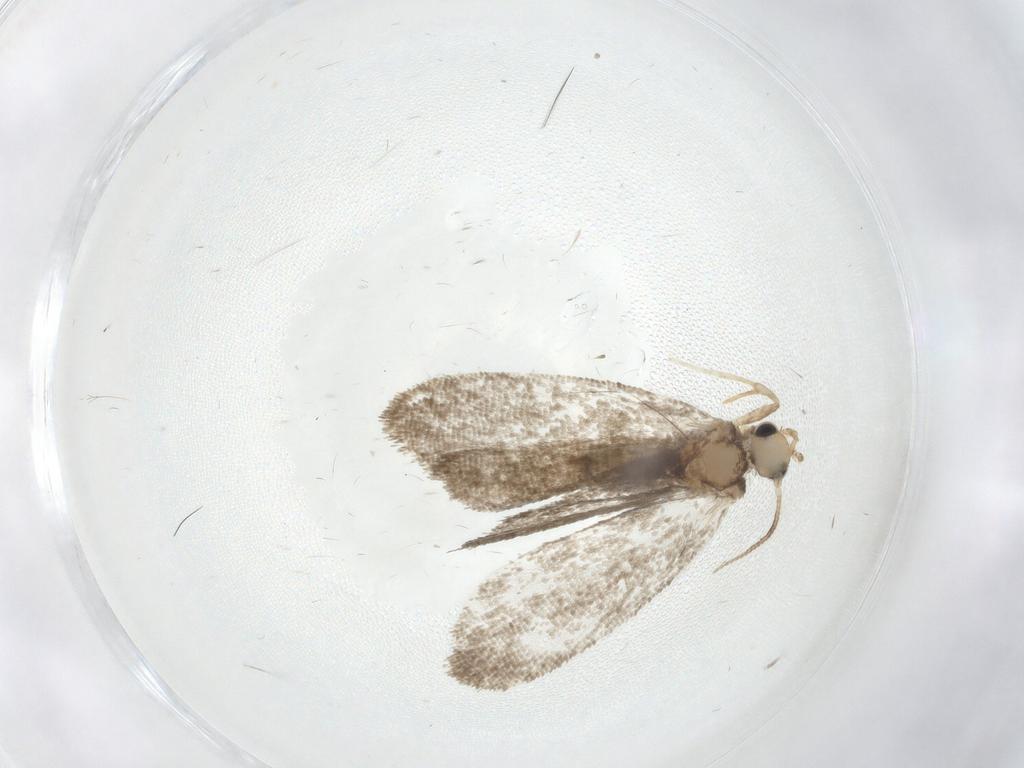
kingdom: Animalia
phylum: Arthropoda
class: Insecta
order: Lepidoptera
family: Psychidae
